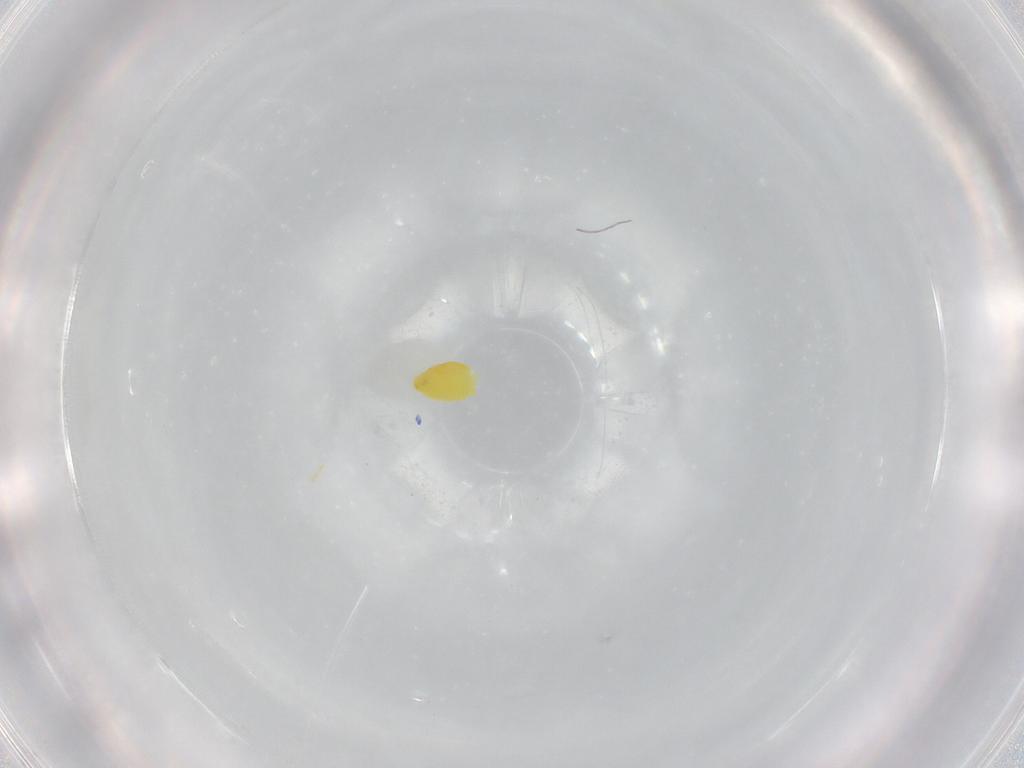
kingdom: Animalia
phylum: Arthropoda
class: Insecta
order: Hemiptera
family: Aleyrodidae
